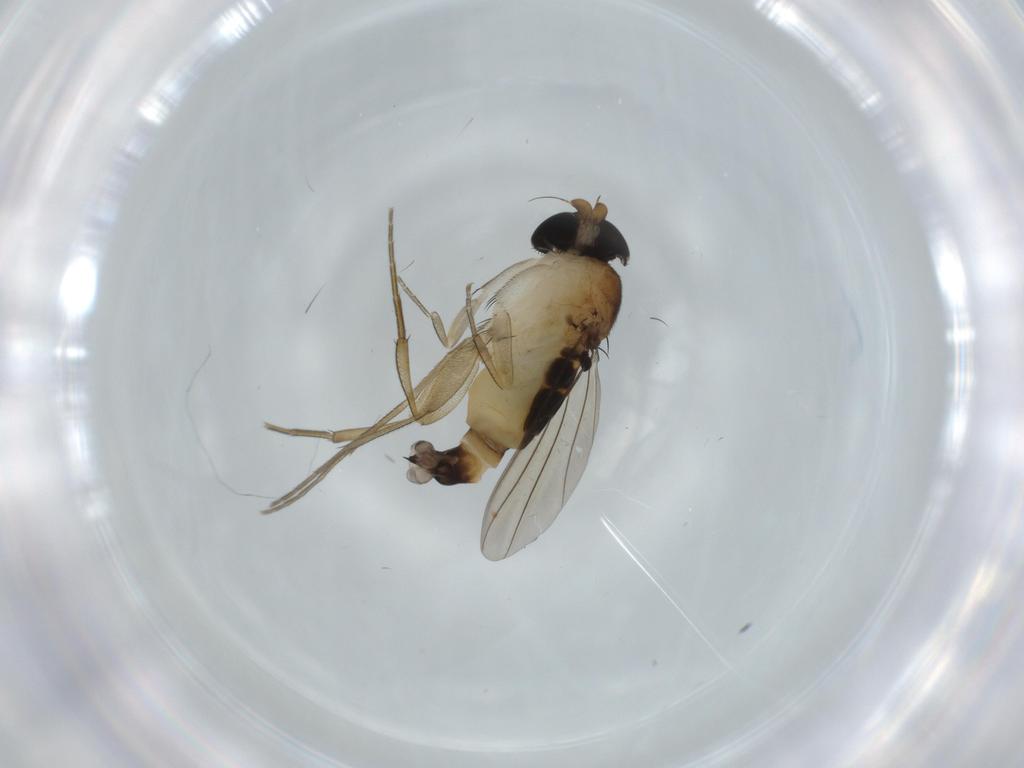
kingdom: Animalia
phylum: Arthropoda
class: Insecta
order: Diptera
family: Phoridae
